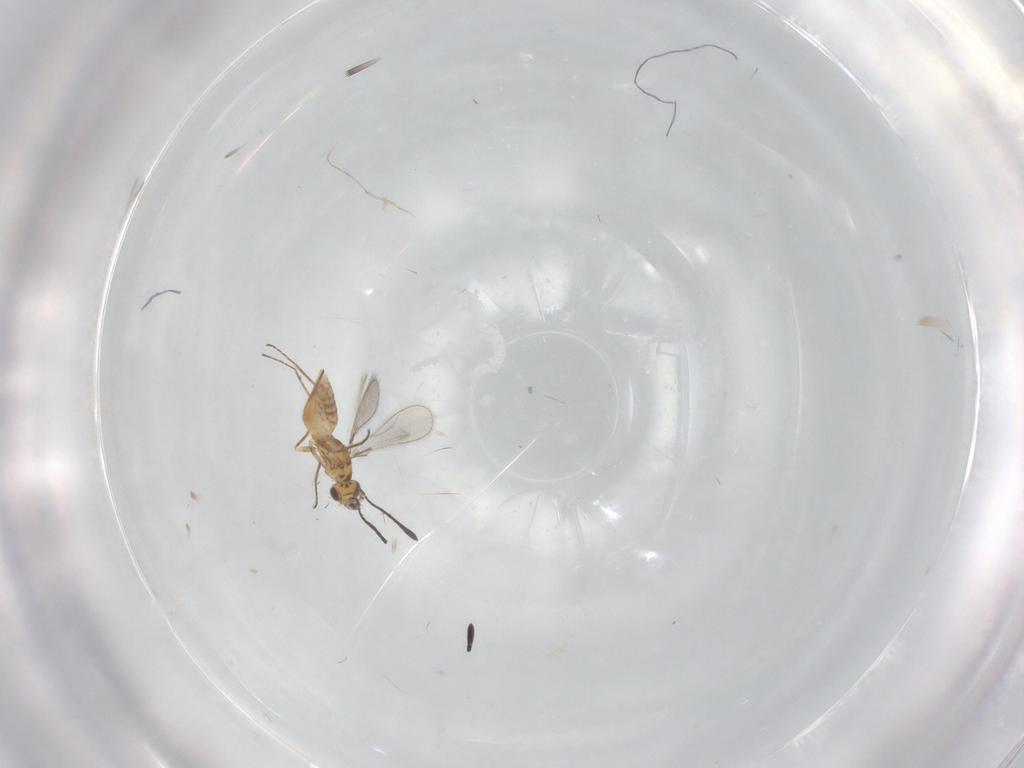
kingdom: Animalia
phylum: Arthropoda
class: Insecta
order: Hymenoptera
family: Mymaridae
